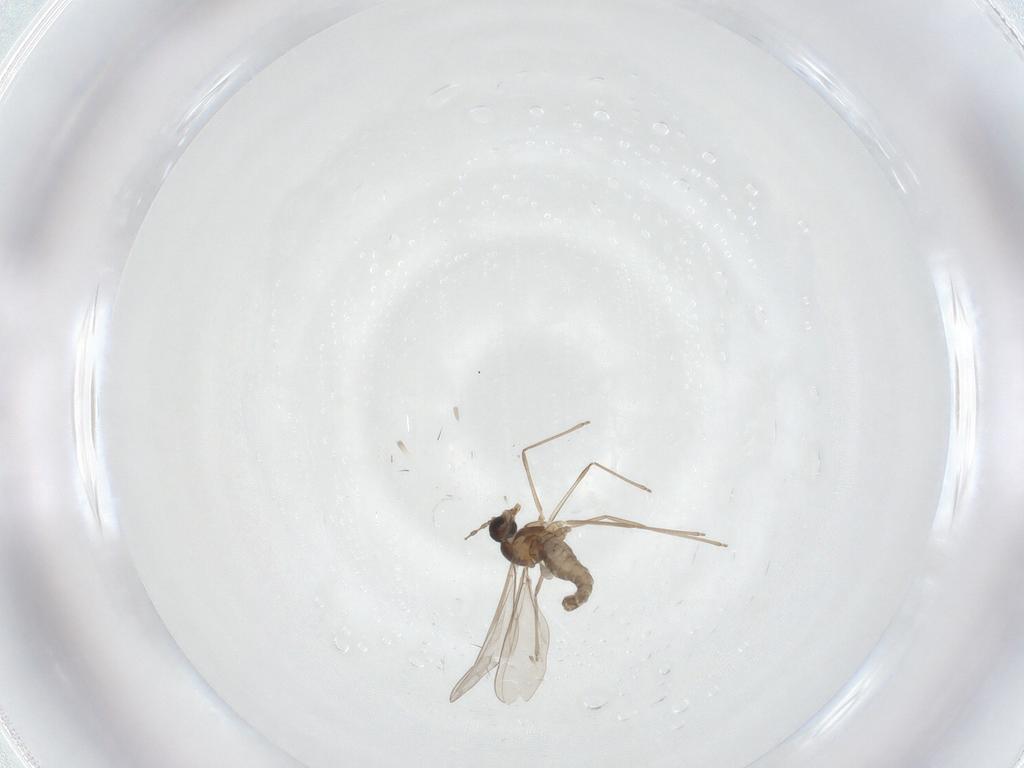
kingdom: Animalia
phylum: Arthropoda
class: Insecta
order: Diptera
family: Cecidomyiidae
